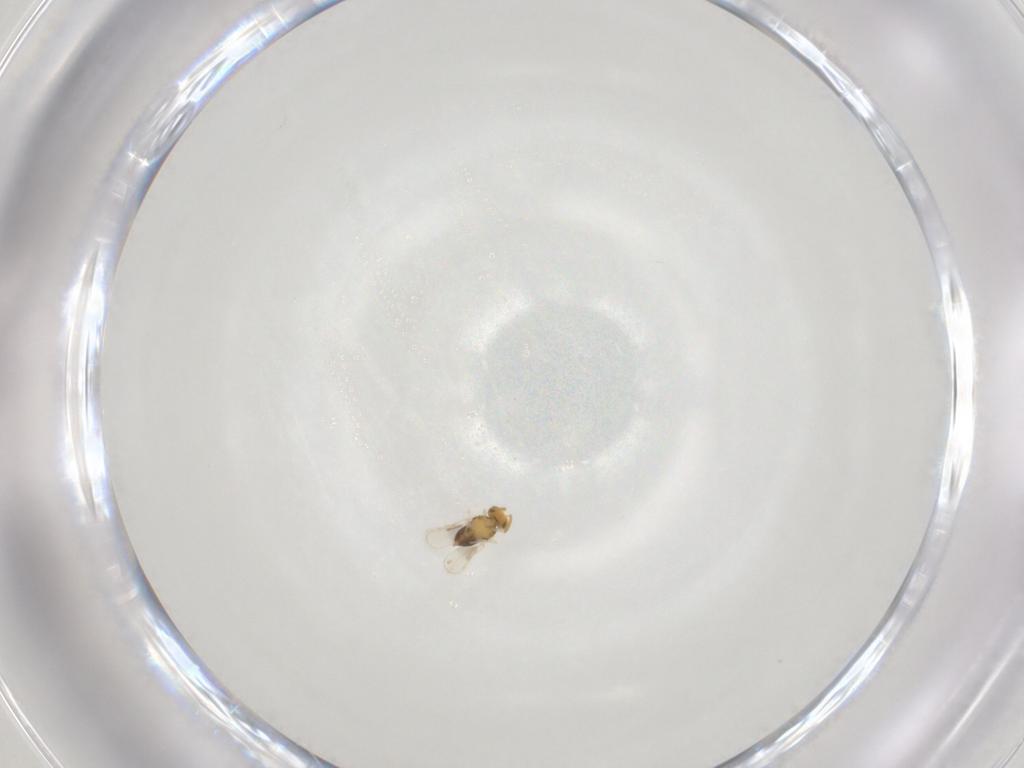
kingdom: Animalia
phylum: Arthropoda
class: Insecta
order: Hymenoptera
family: Aphelinidae
